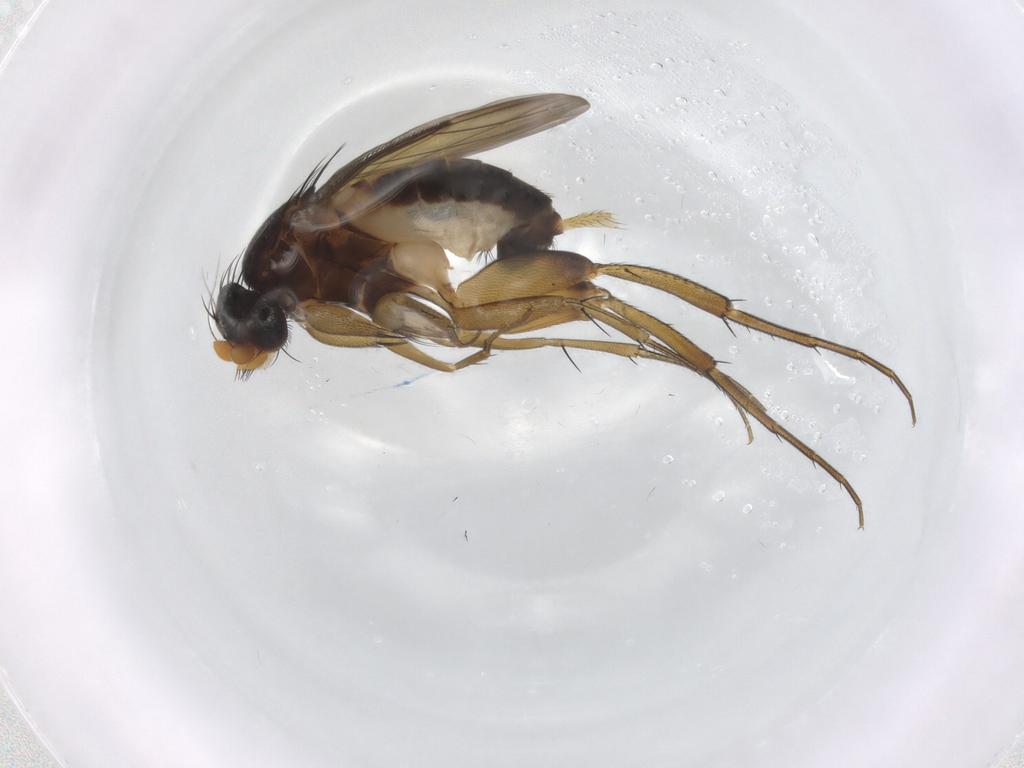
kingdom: Animalia
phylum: Arthropoda
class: Insecta
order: Diptera
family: Phoridae
